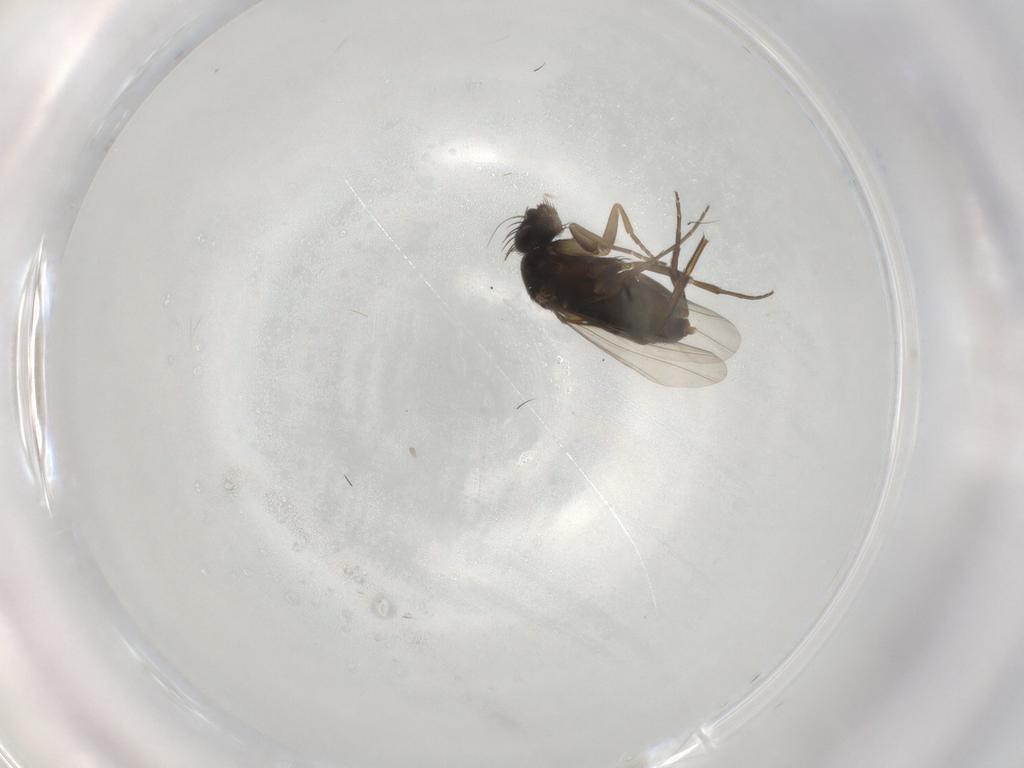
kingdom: Animalia
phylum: Arthropoda
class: Insecta
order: Diptera
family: Phoridae
